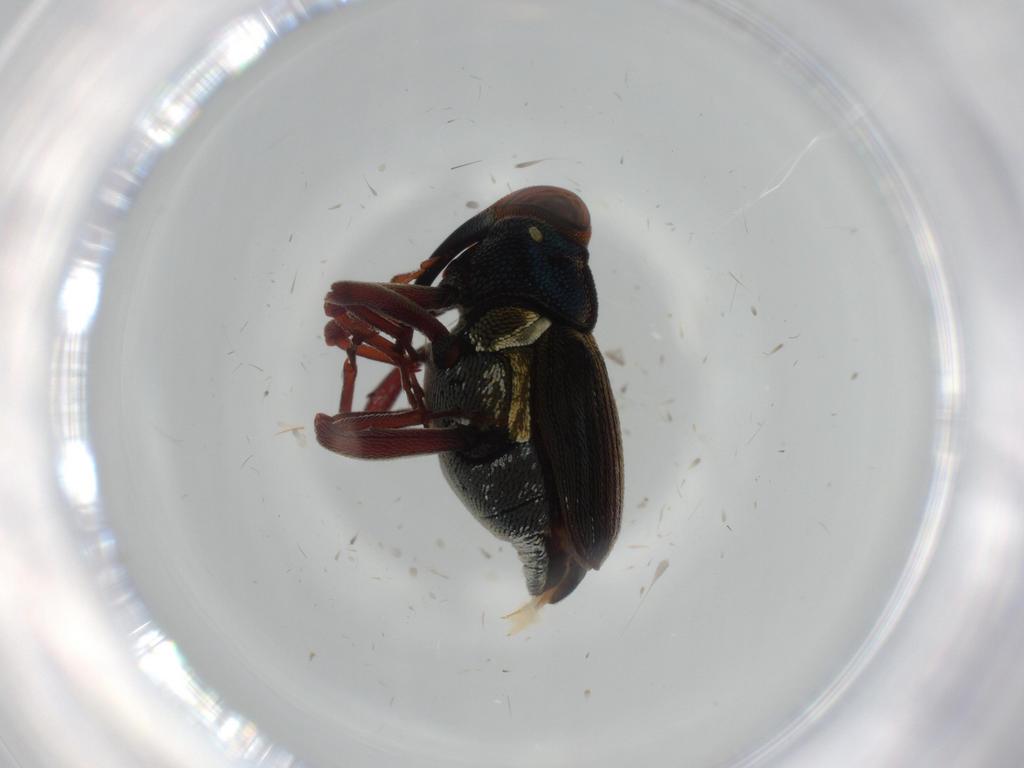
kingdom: Animalia
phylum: Arthropoda
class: Insecta
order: Coleoptera
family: Curculionidae
